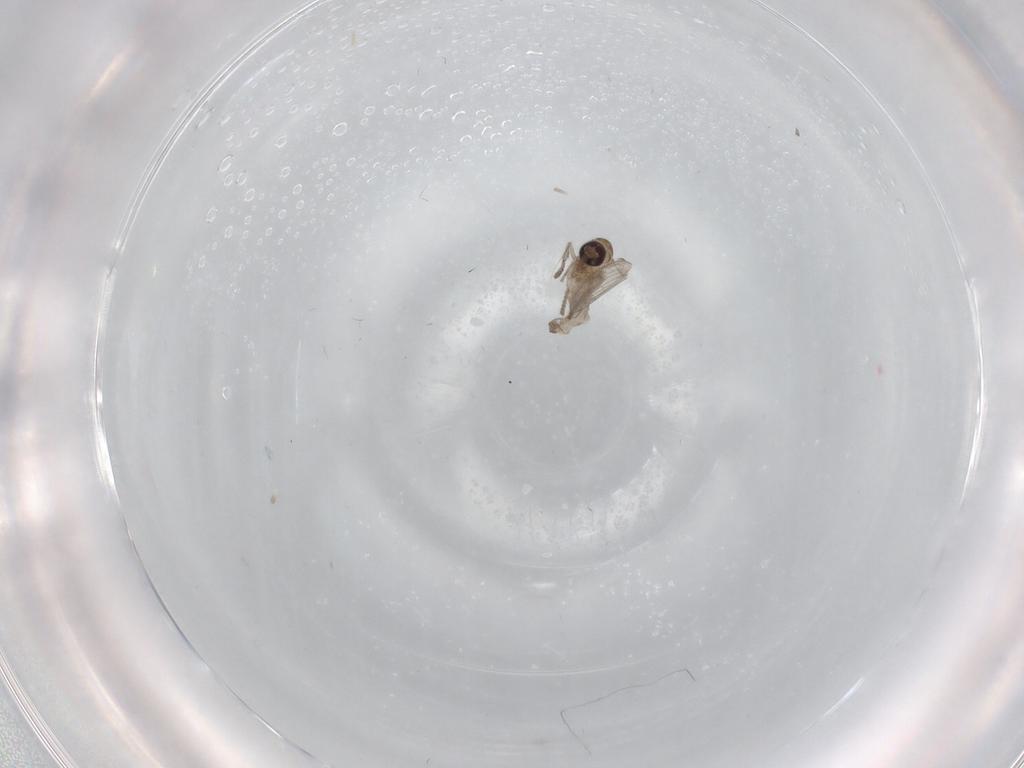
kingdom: Animalia
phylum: Arthropoda
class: Insecta
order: Diptera
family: Psychodidae
